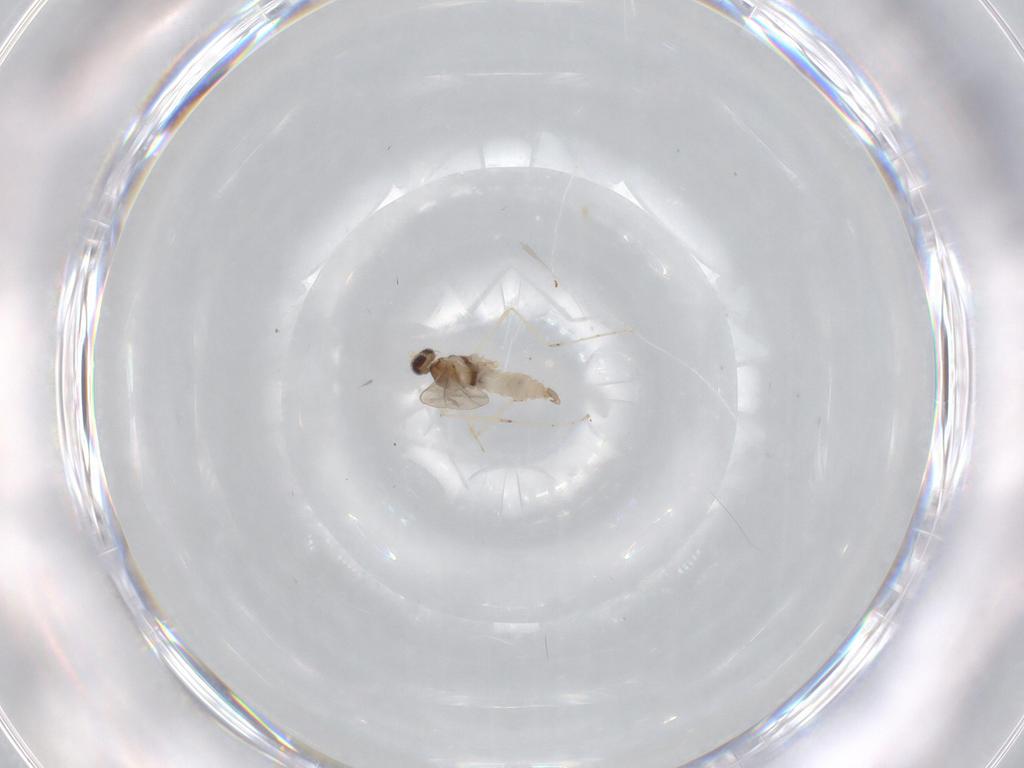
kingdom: Animalia
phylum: Arthropoda
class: Insecta
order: Diptera
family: Cecidomyiidae
